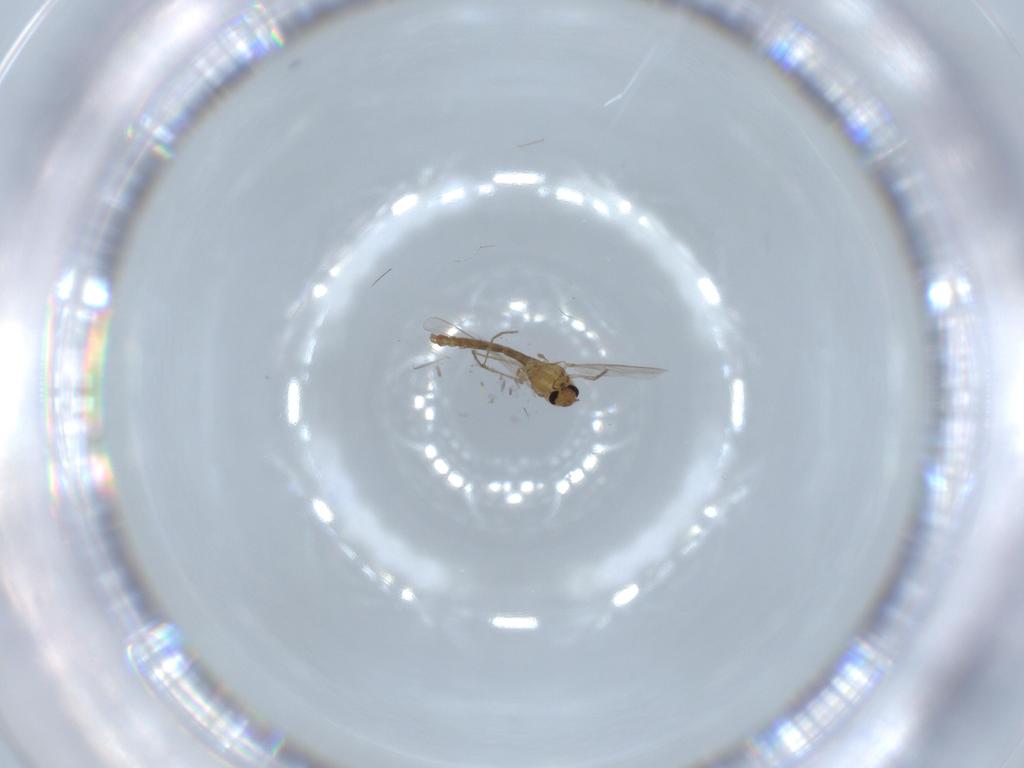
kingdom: Animalia
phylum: Arthropoda
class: Insecta
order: Diptera
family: Chironomidae
